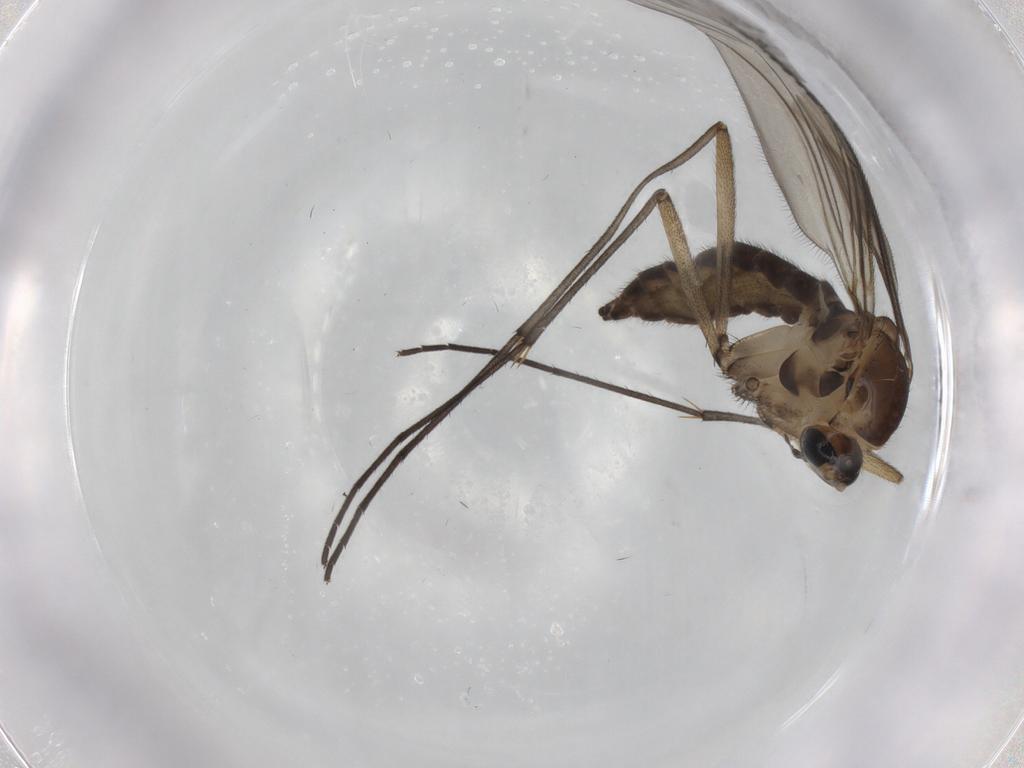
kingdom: Animalia
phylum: Arthropoda
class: Insecta
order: Diptera
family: Sciaridae
